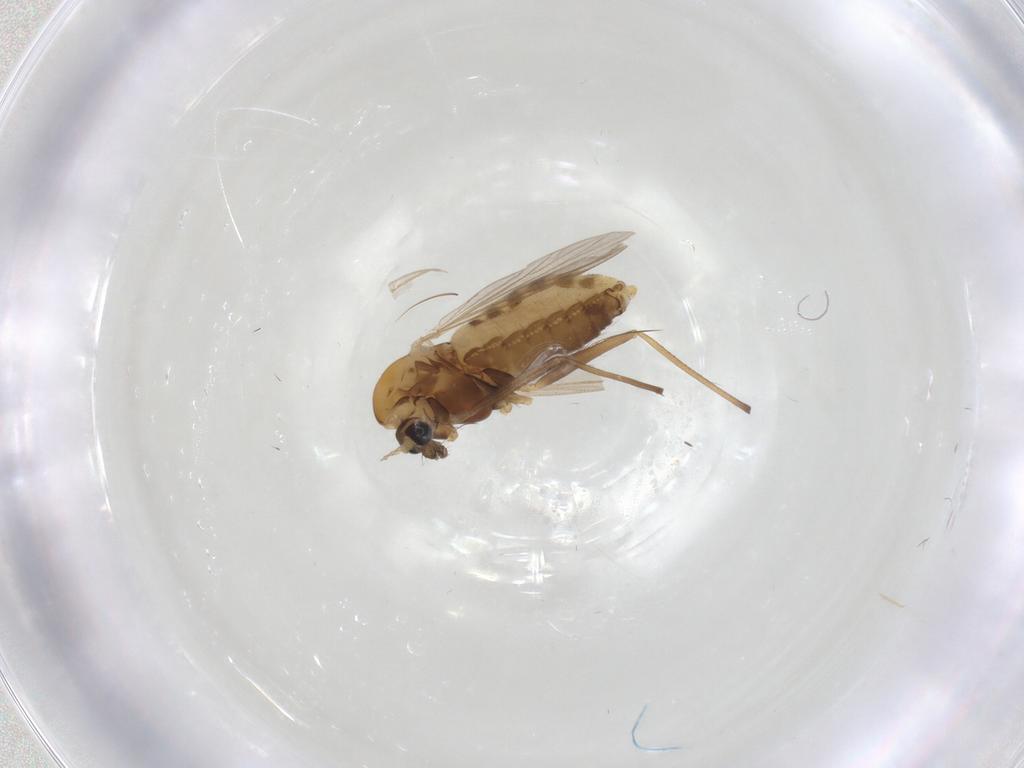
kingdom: Animalia
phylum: Arthropoda
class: Insecta
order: Diptera
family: Chironomidae
